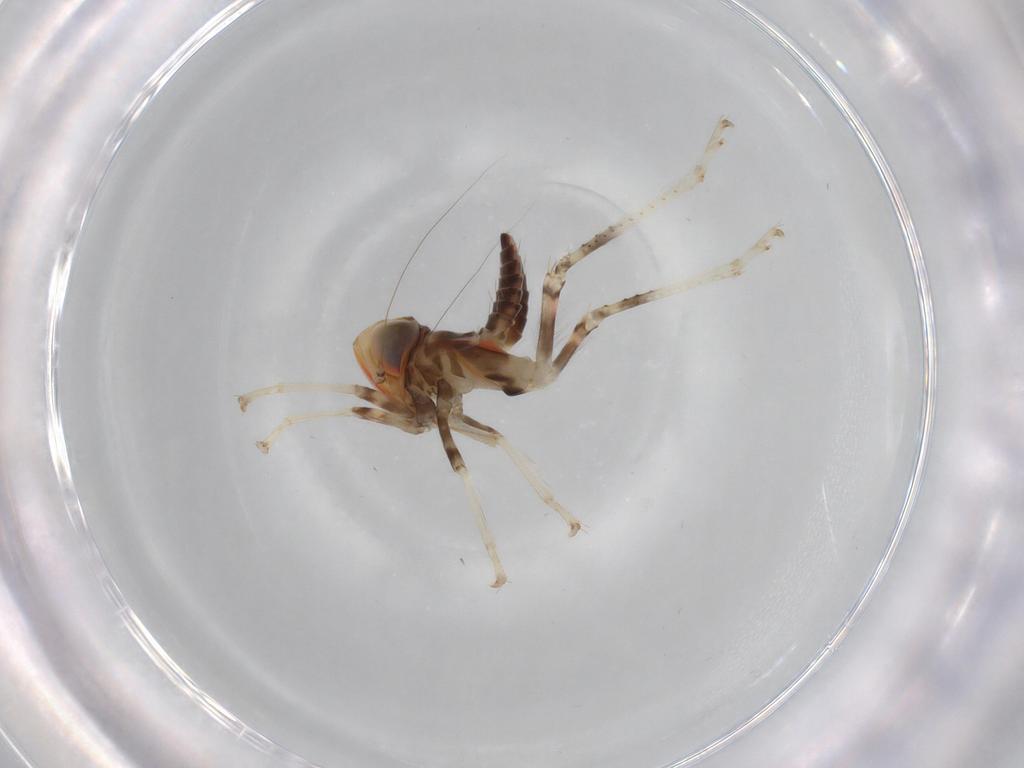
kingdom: Animalia
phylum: Arthropoda
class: Insecta
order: Hemiptera
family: Cicadellidae
